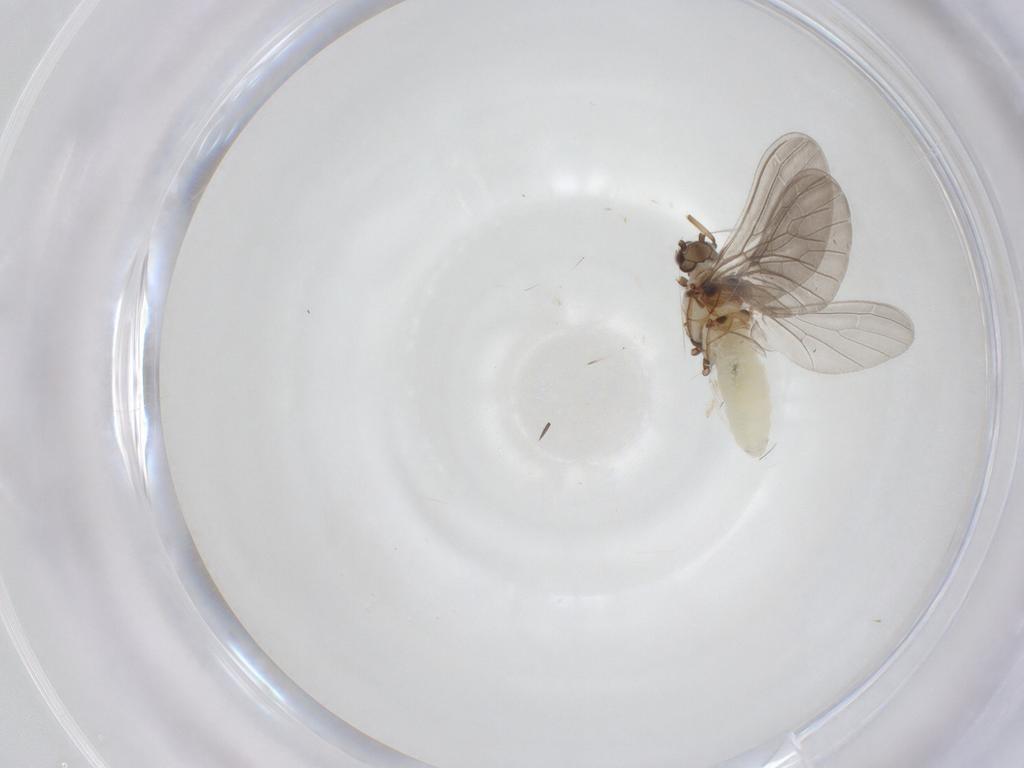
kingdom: Animalia
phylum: Arthropoda
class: Insecta
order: Neuroptera
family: Coniopterygidae
